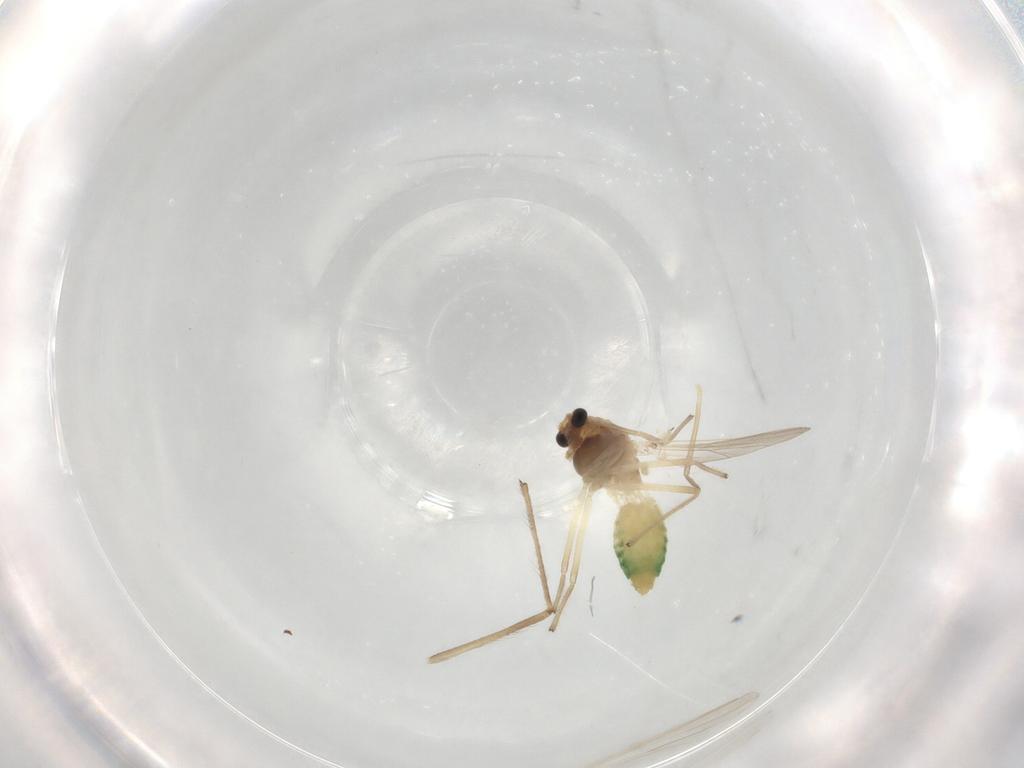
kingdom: Animalia
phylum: Arthropoda
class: Insecta
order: Diptera
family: Chironomidae
